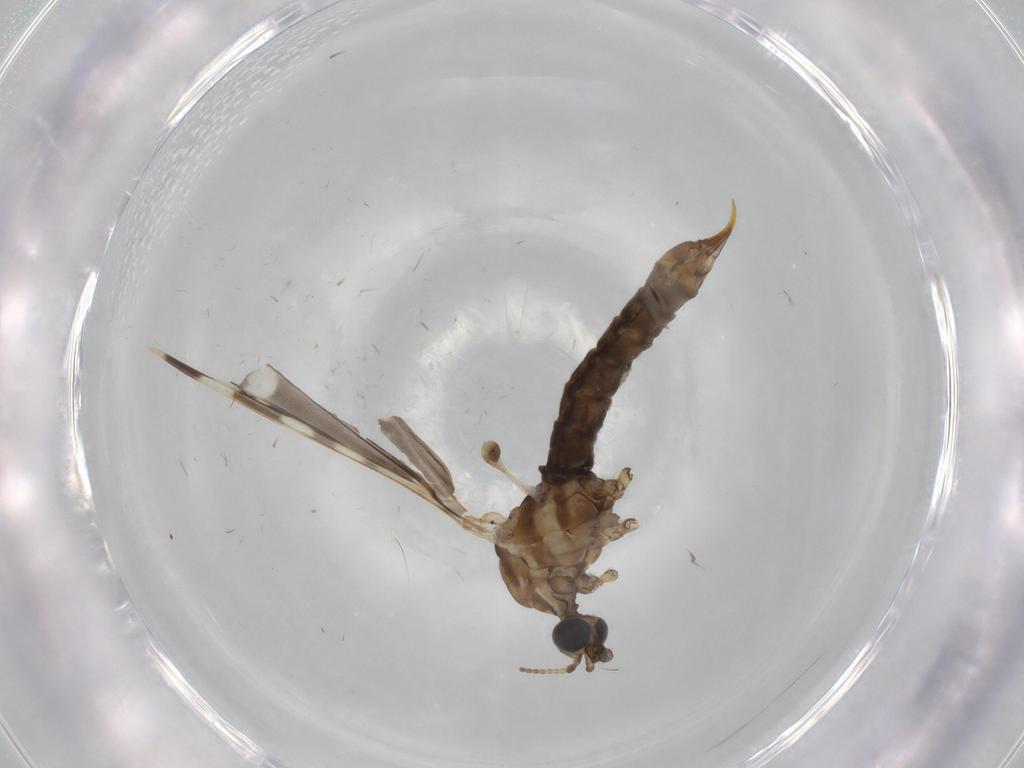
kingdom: Animalia
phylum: Arthropoda
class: Insecta
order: Diptera
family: Phoridae
